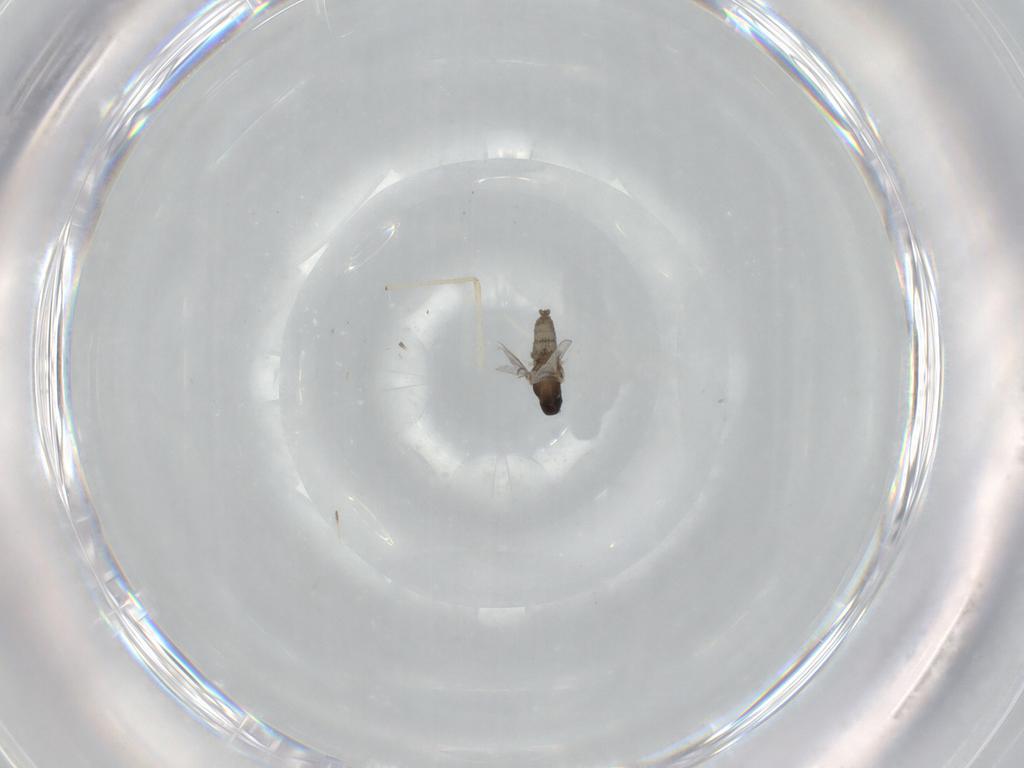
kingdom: Animalia
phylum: Arthropoda
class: Insecta
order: Diptera
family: Cecidomyiidae
